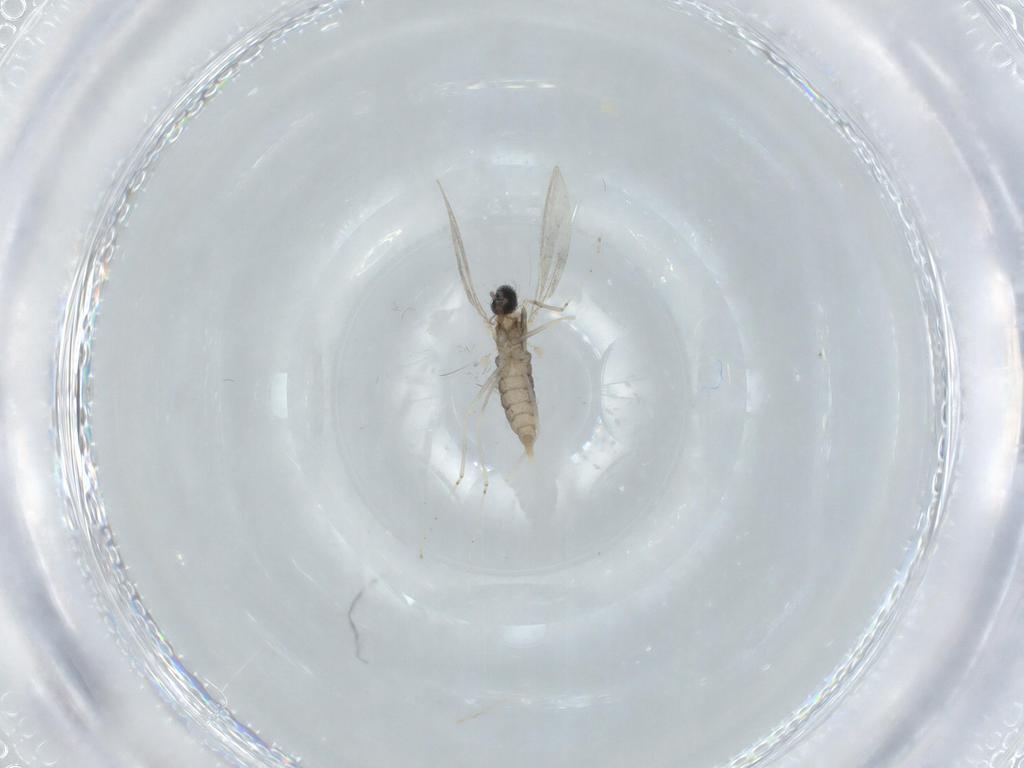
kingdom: Animalia
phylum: Arthropoda
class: Insecta
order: Diptera
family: Cecidomyiidae
